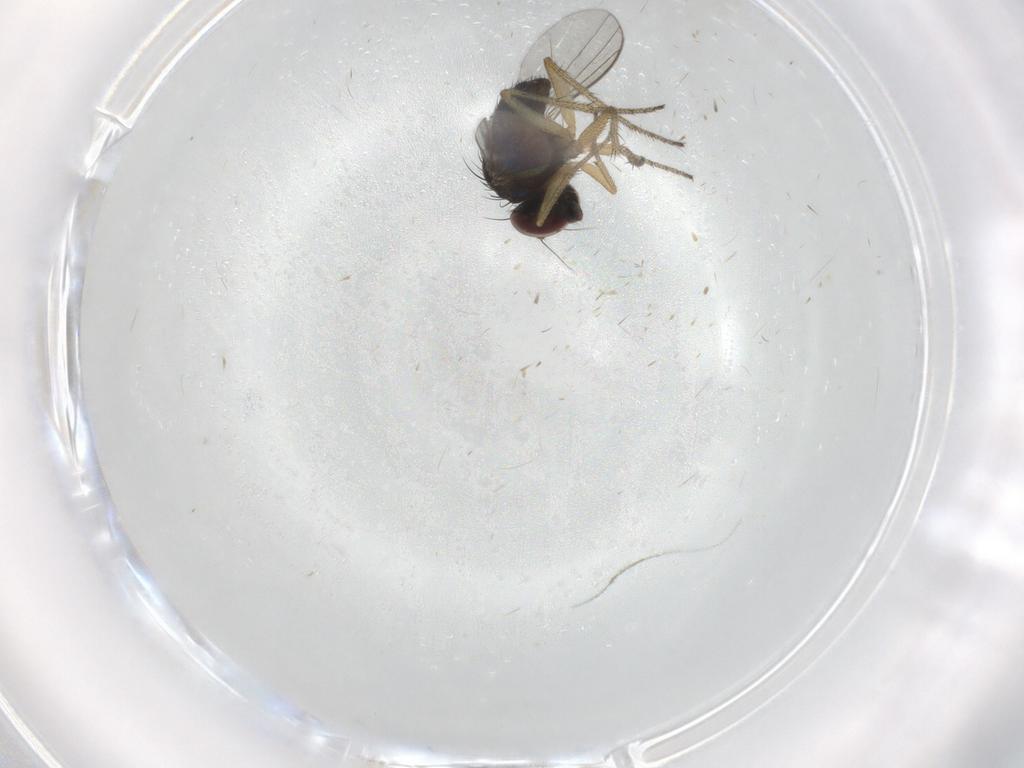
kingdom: Animalia
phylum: Arthropoda
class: Insecta
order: Diptera
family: Dolichopodidae
